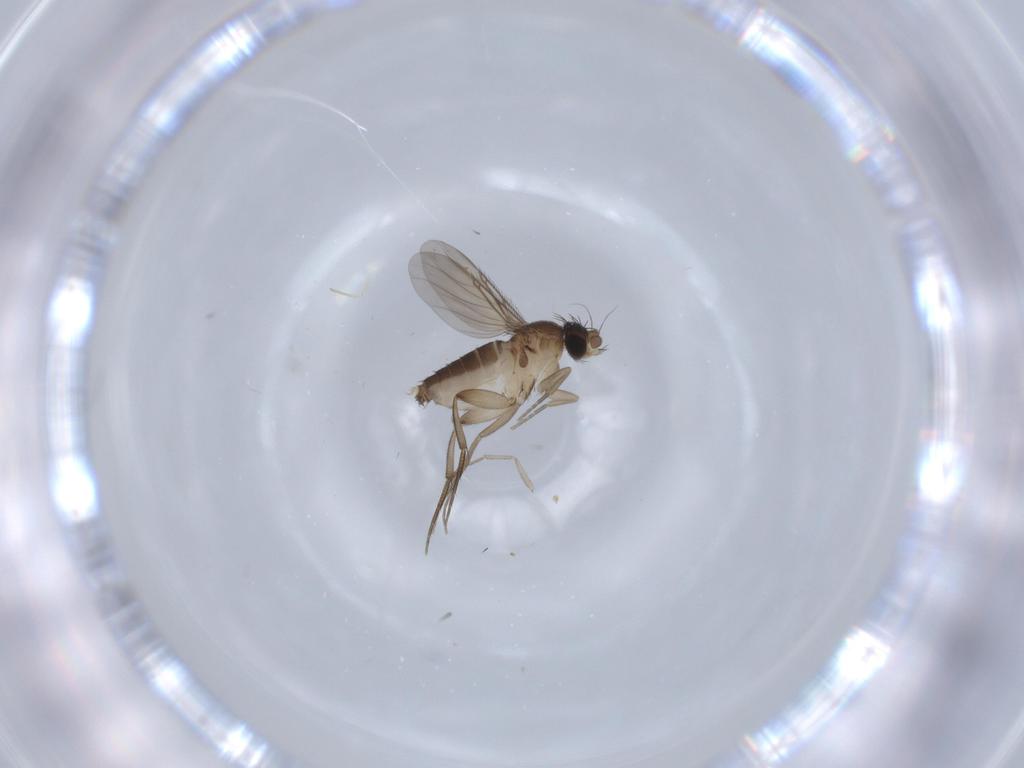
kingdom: Animalia
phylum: Arthropoda
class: Insecta
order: Diptera
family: Phoridae
